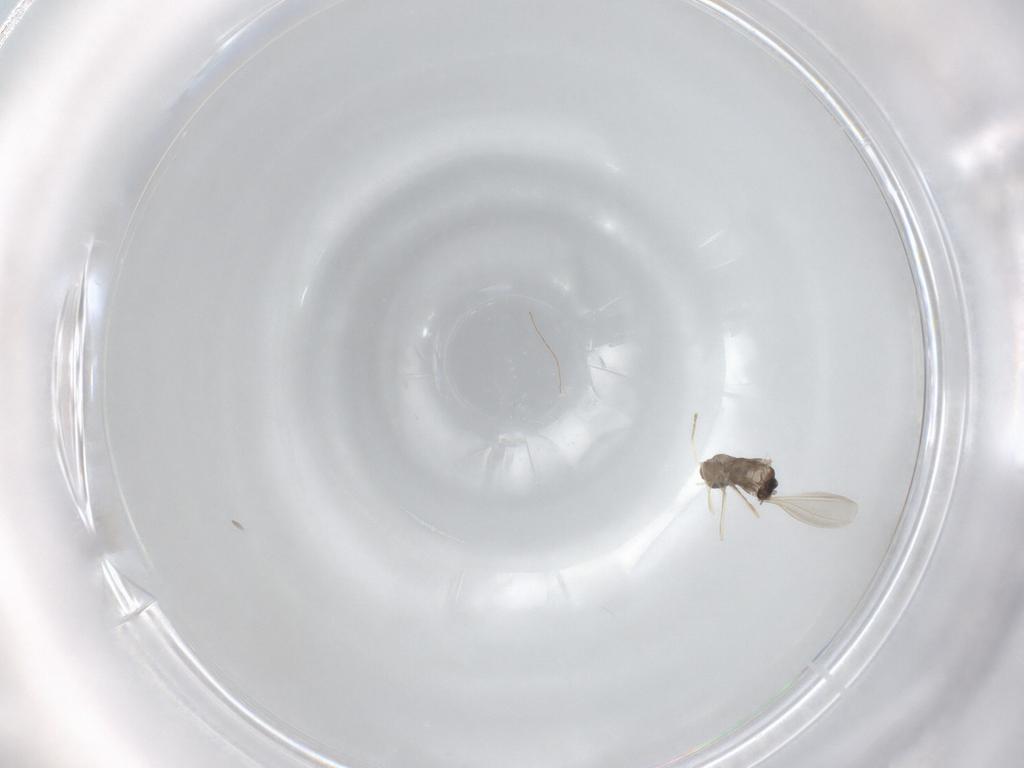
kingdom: Animalia
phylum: Arthropoda
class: Insecta
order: Diptera
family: Cecidomyiidae
